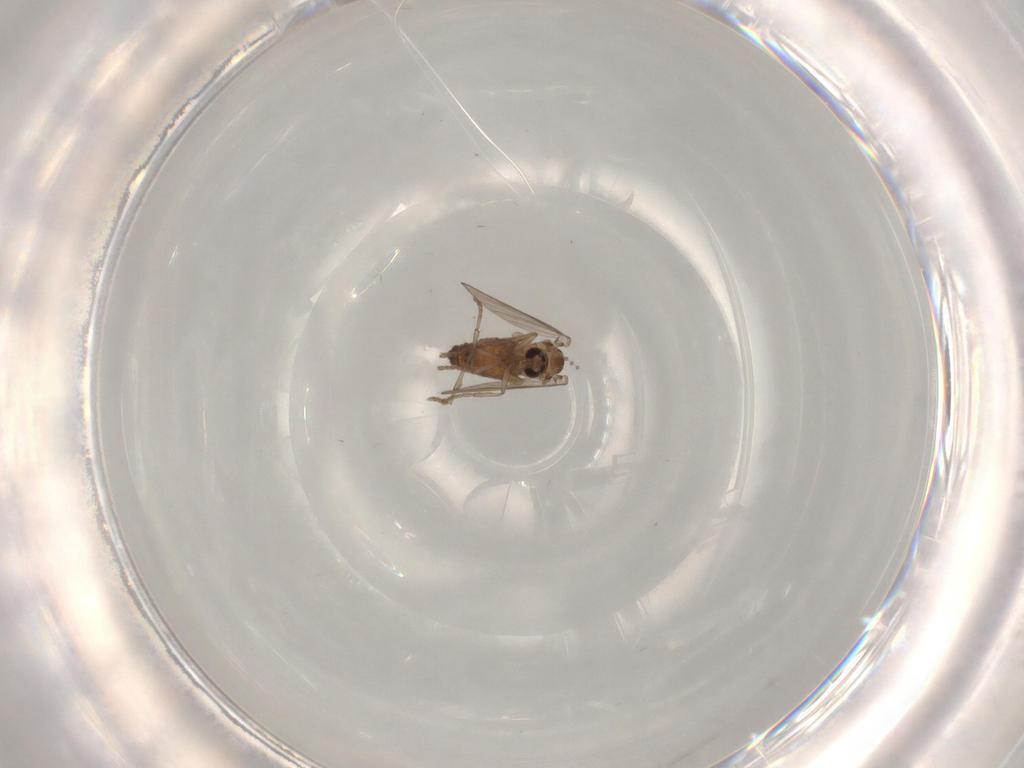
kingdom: Animalia
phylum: Arthropoda
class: Insecta
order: Diptera
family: Psychodidae
